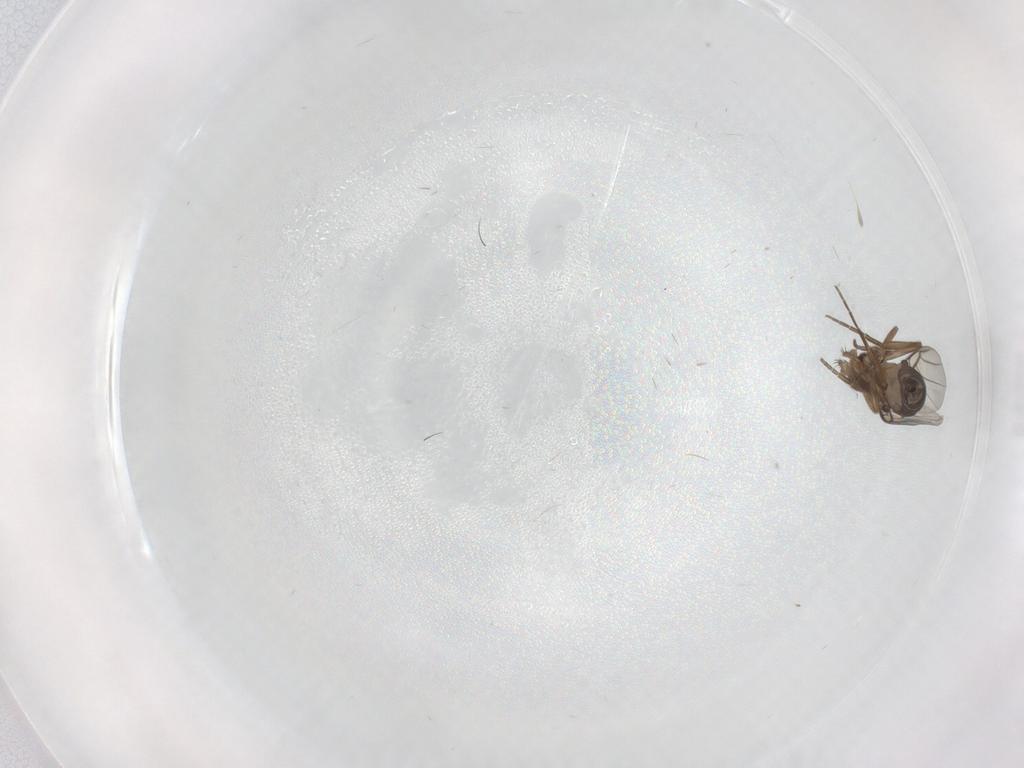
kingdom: Animalia
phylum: Arthropoda
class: Insecta
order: Diptera
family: Phoridae
